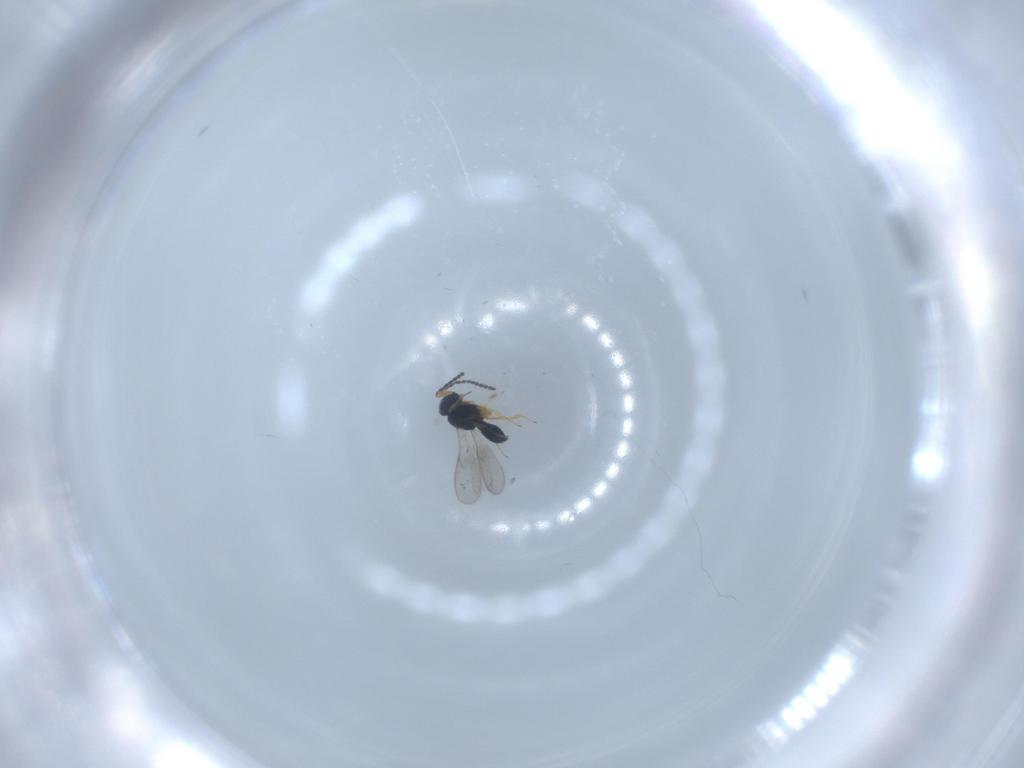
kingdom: Animalia
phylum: Arthropoda
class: Insecta
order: Hymenoptera
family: Scelionidae
